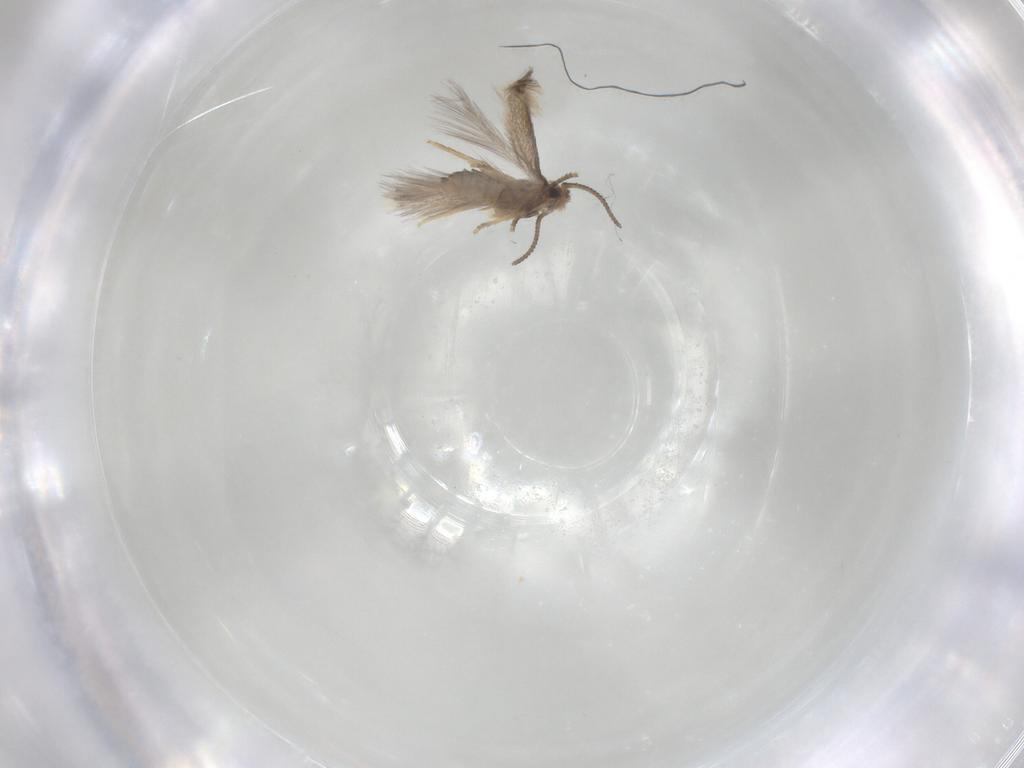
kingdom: Animalia
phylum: Arthropoda
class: Insecta
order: Lepidoptera
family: Nepticulidae
